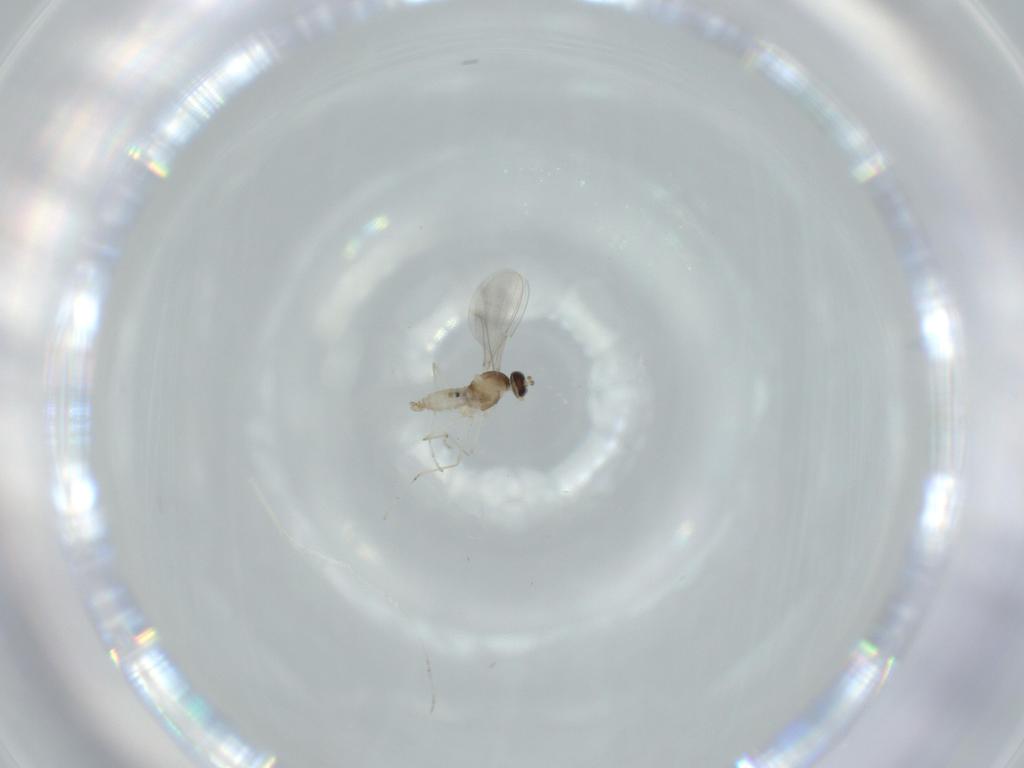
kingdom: Animalia
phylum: Arthropoda
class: Insecta
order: Diptera
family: Cecidomyiidae
